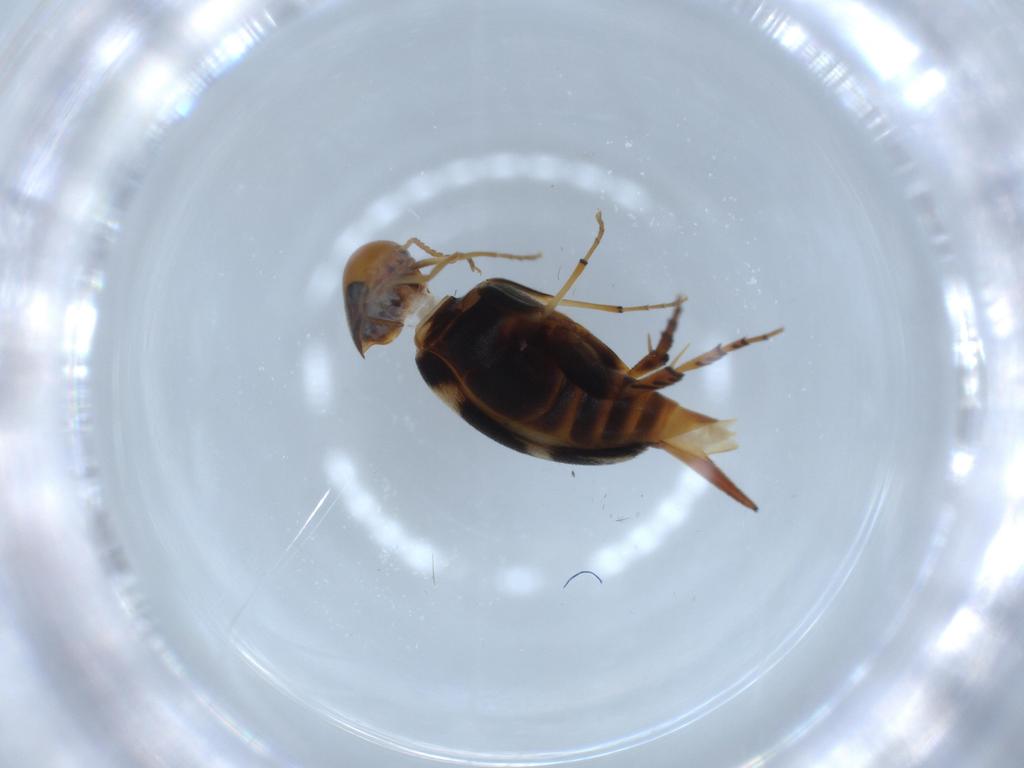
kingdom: Animalia
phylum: Arthropoda
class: Insecta
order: Coleoptera
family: Mordellidae
